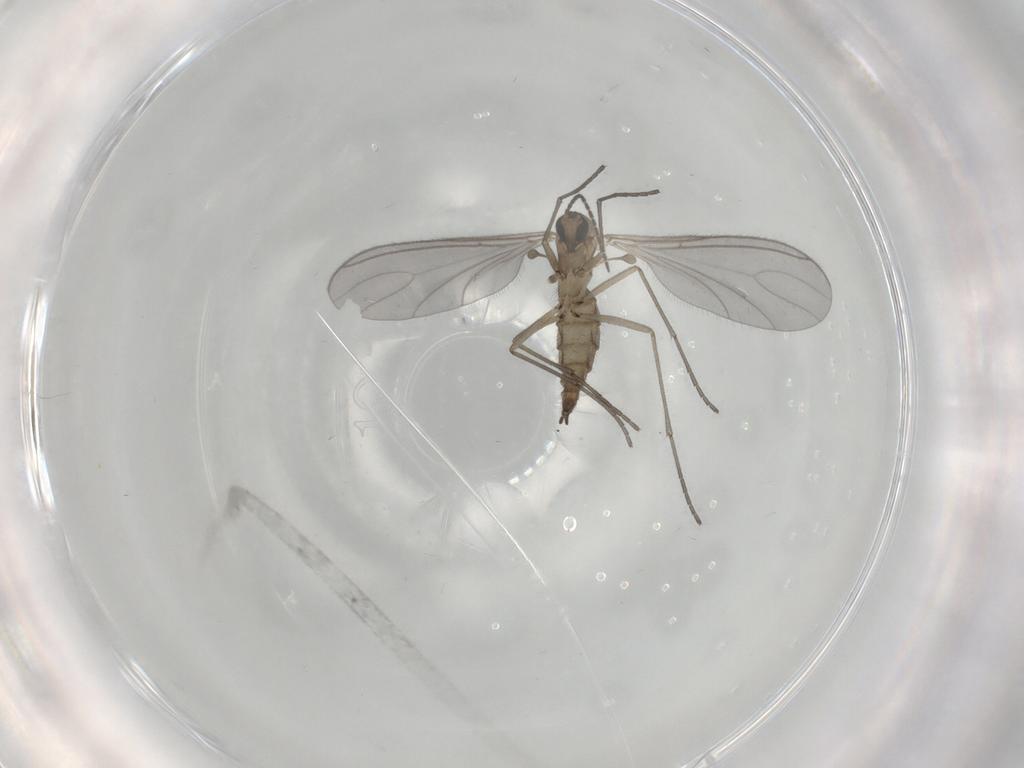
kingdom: Animalia
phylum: Arthropoda
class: Insecta
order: Diptera
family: Sciaridae
